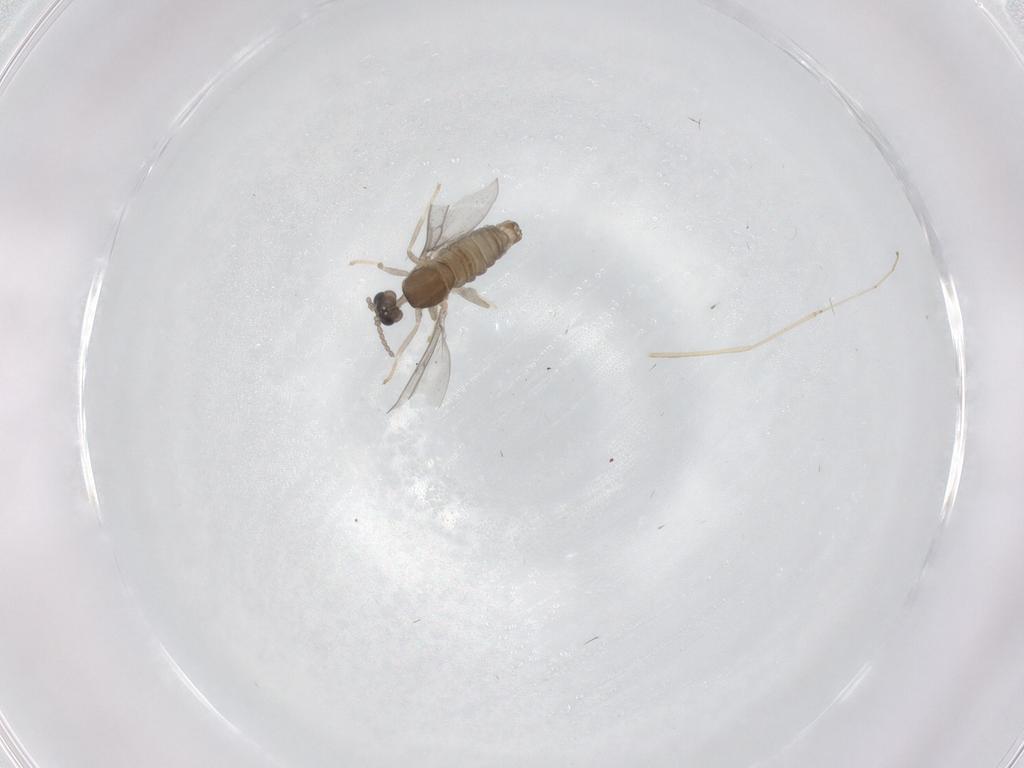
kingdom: Animalia
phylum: Arthropoda
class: Insecta
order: Diptera
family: Cecidomyiidae
